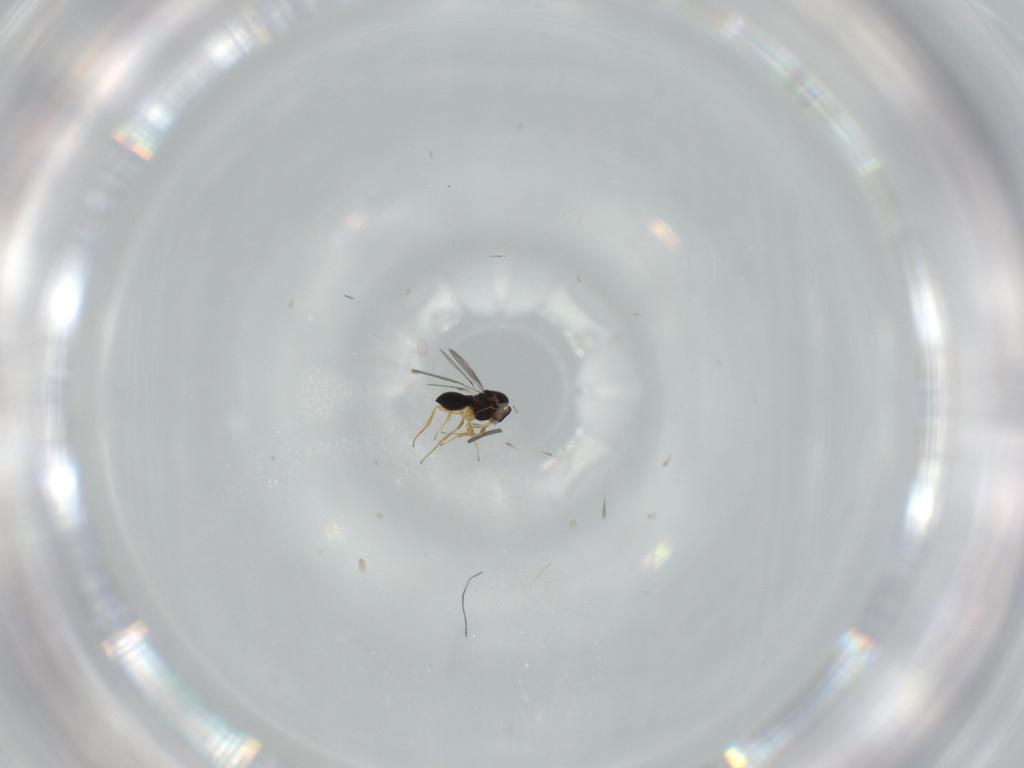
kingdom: Animalia
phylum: Arthropoda
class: Insecta
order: Hymenoptera
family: Scelionidae
